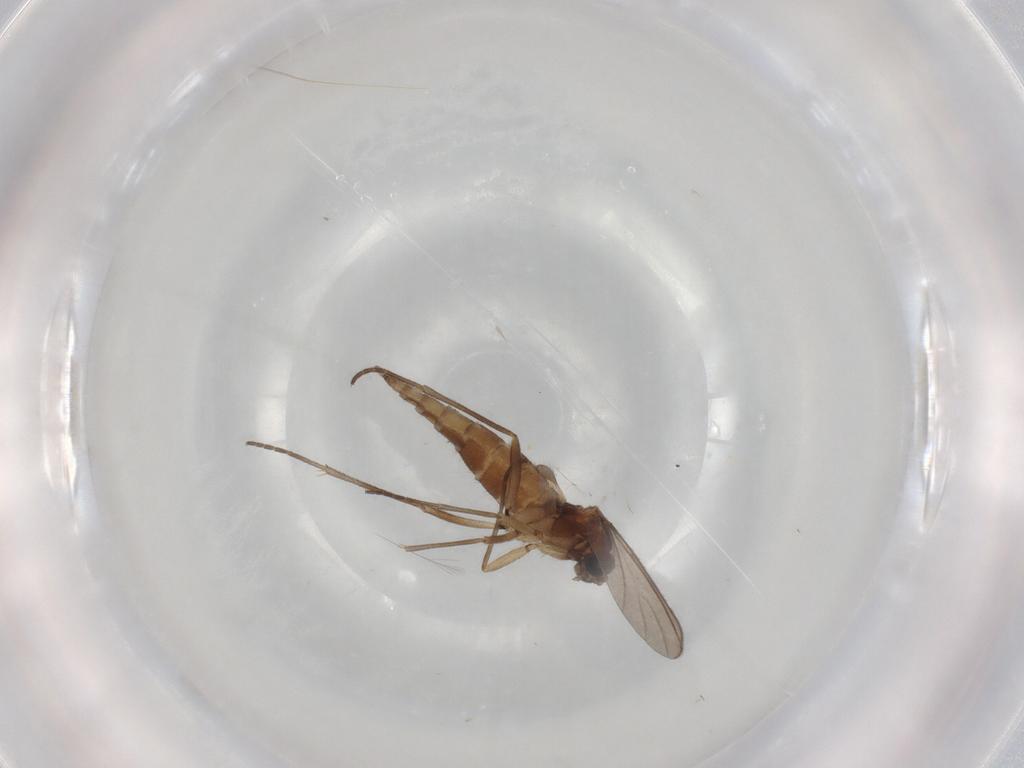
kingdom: Animalia
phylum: Arthropoda
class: Insecta
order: Diptera
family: Sciaridae
